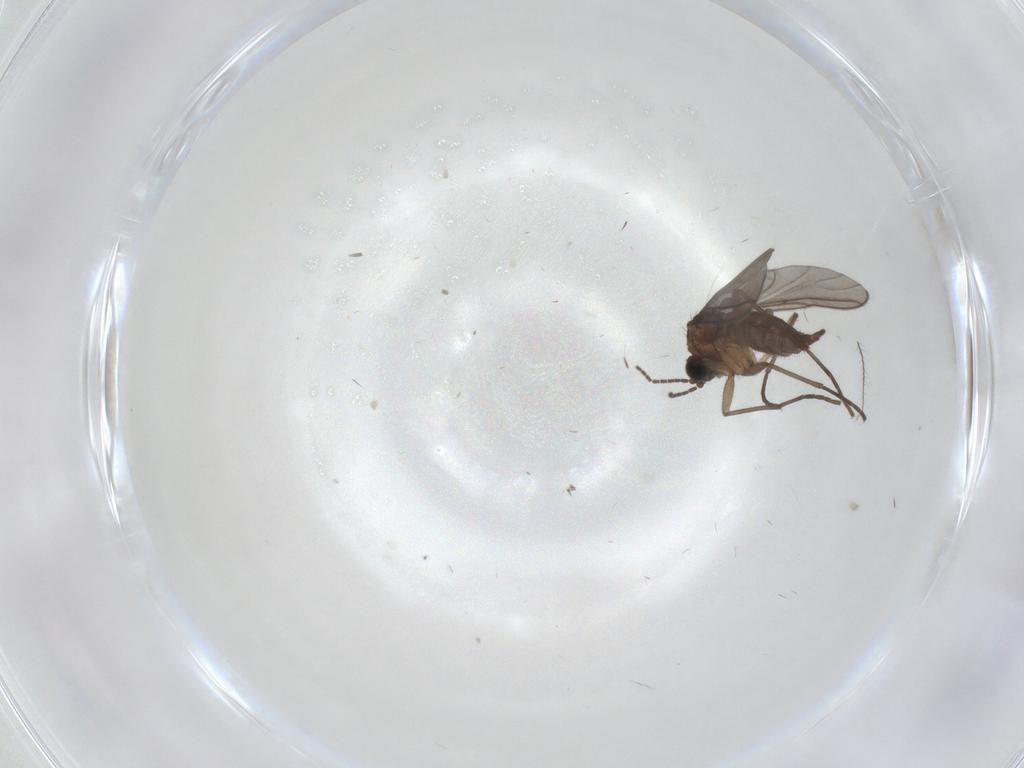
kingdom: Animalia
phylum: Arthropoda
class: Insecta
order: Diptera
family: Sciaridae
